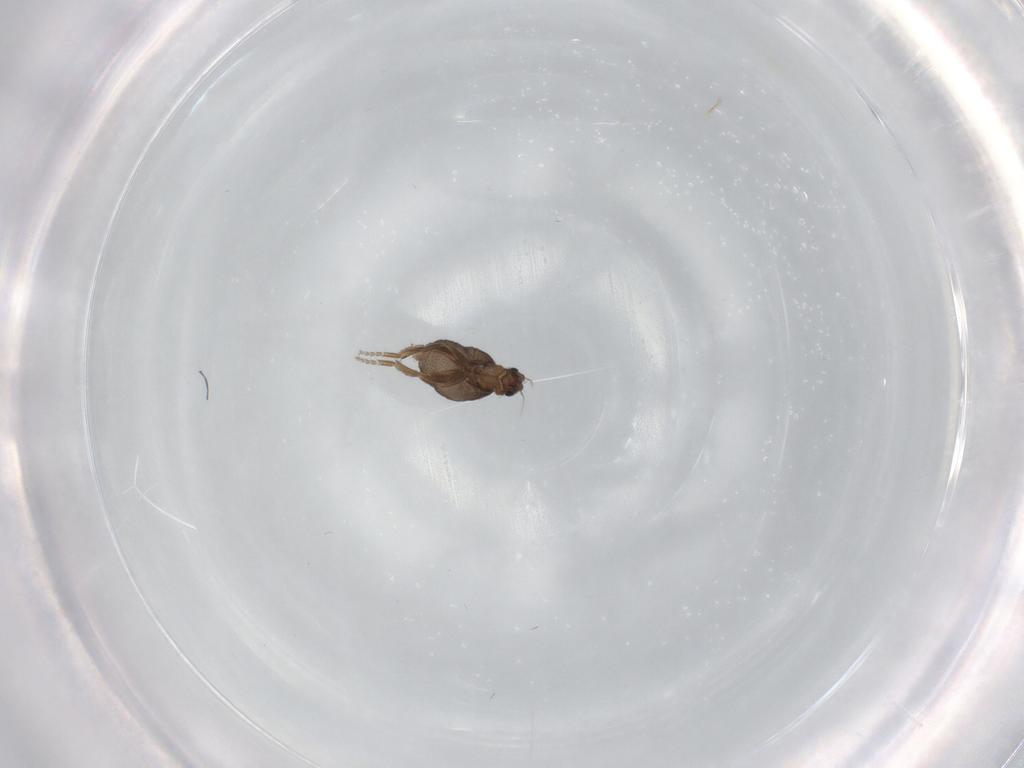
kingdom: Animalia
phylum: Arthropoda
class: Insecta
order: Diptera
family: Phoridae
